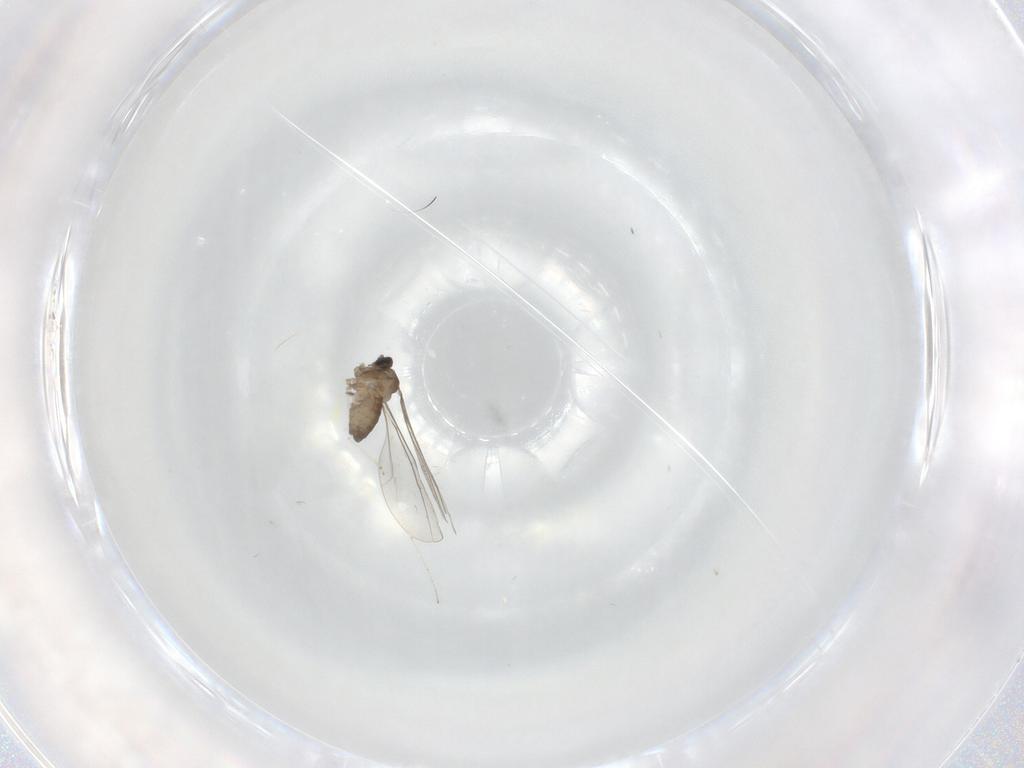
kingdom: Animalia
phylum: Arthropoda
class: Insecta
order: Diptera
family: Cecidomyiidae
